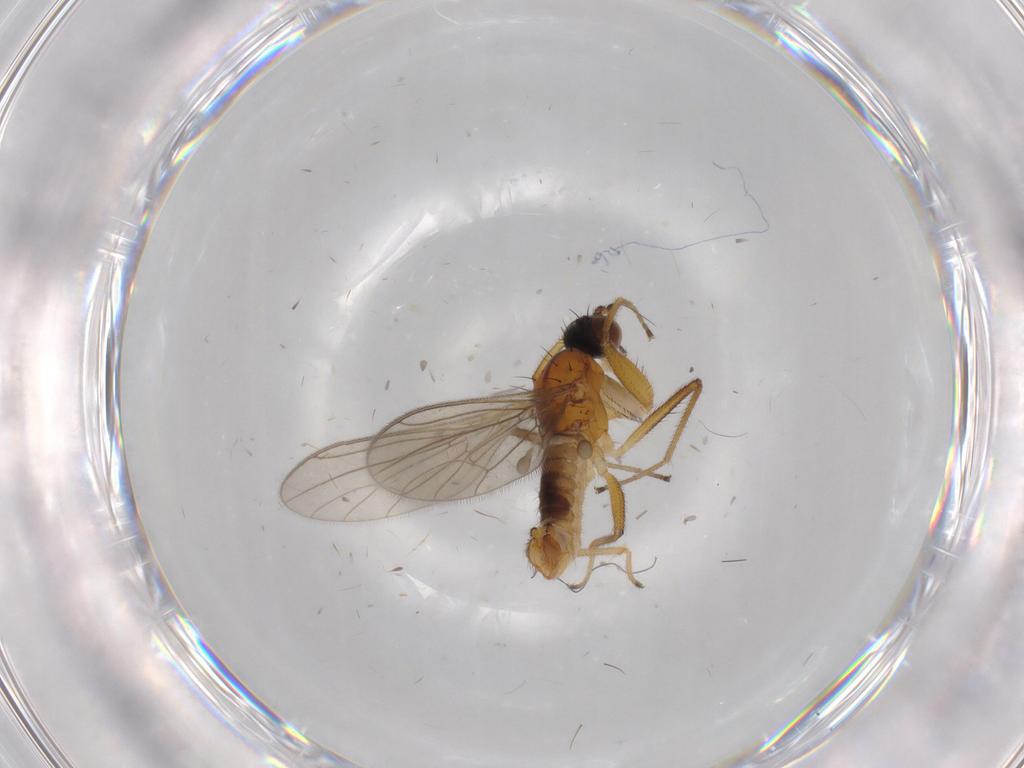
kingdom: Animalia
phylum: Arthropoda
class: Insecta
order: Diptera
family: Empididae
